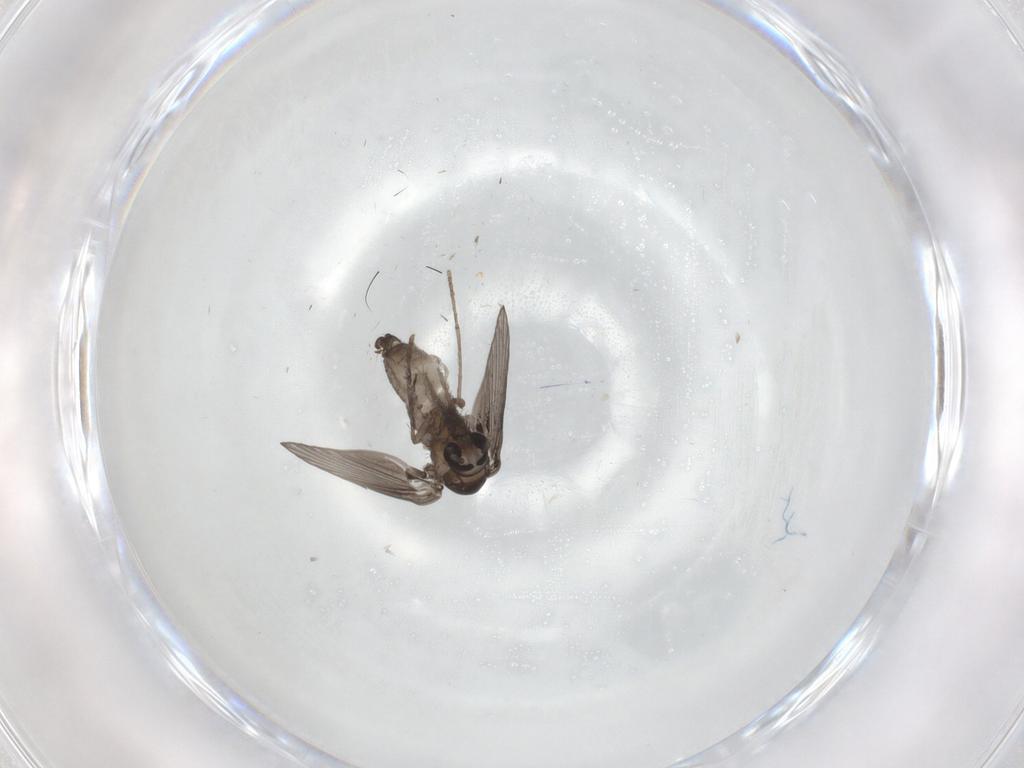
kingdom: Animalia
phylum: Arthropoda
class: Insecta
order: Diptera
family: Psychodidae
